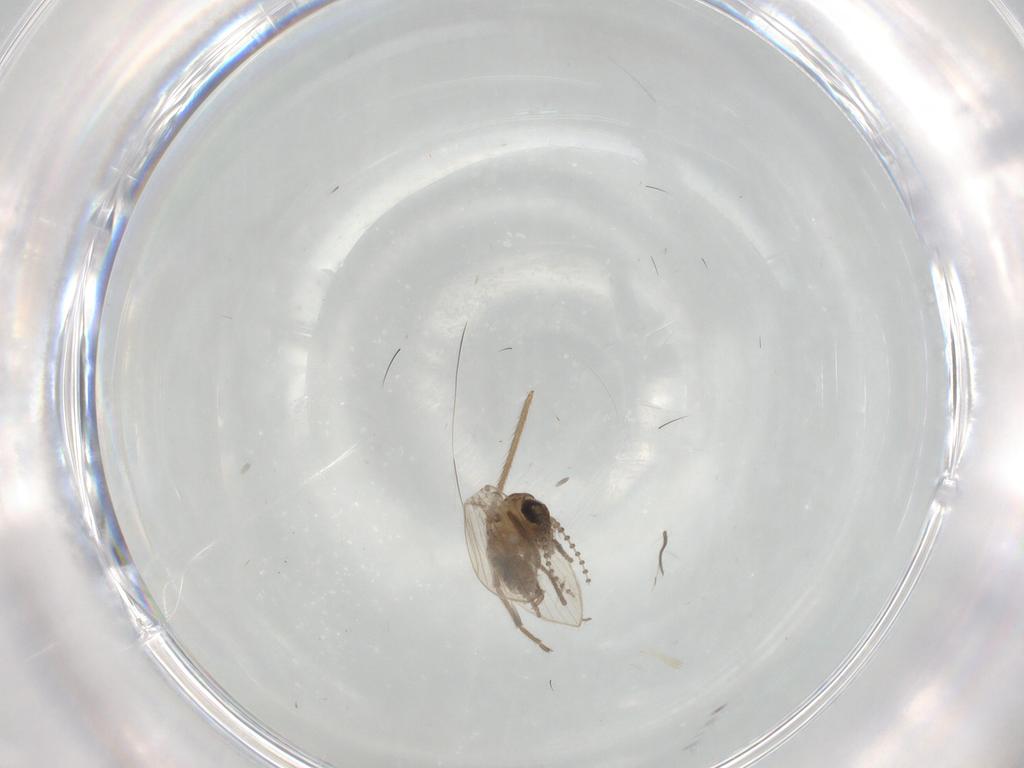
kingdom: Animalia
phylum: Arthropoda
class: Insecta
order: Diptera
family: Psychodidae
